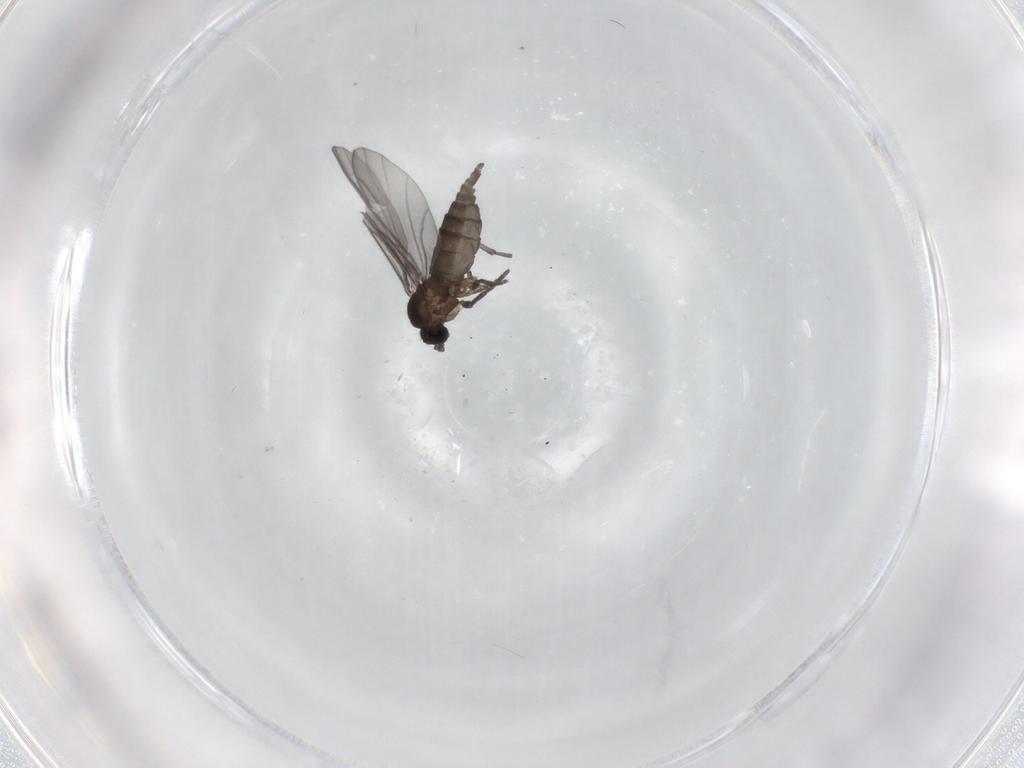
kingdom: Animalia
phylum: Arthropoda
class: Insecta
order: Diptera
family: Sciaridae
